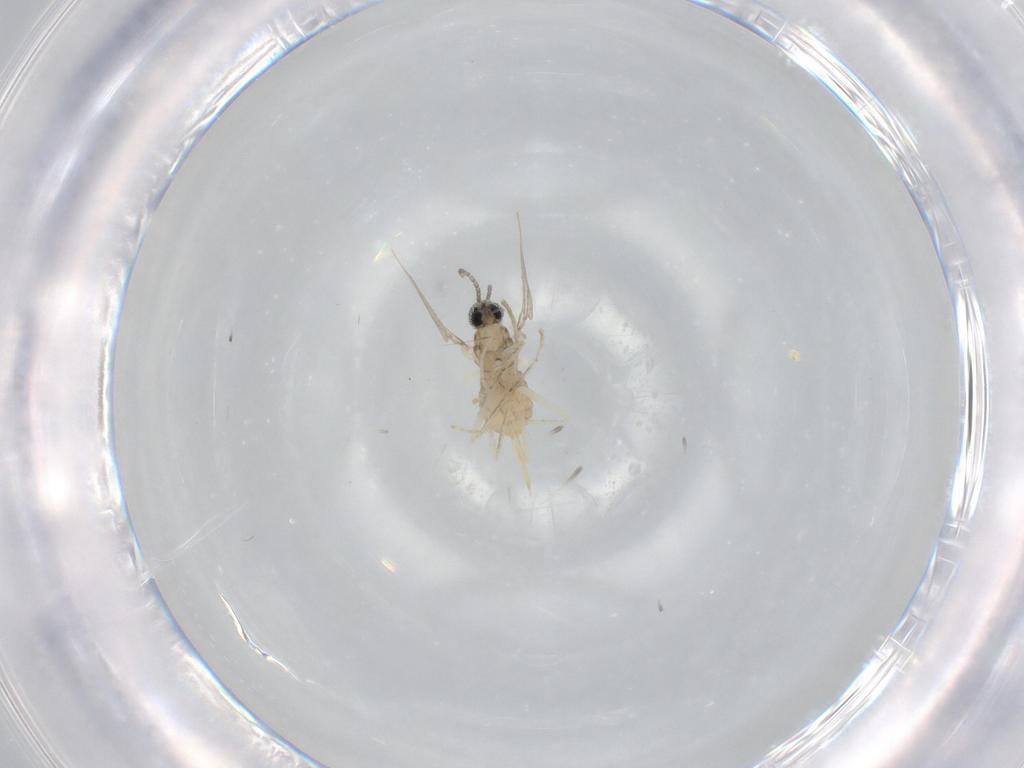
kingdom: Animalia
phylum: Arthropoda
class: Insecta
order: Diptera
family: Cecidomyiidae
